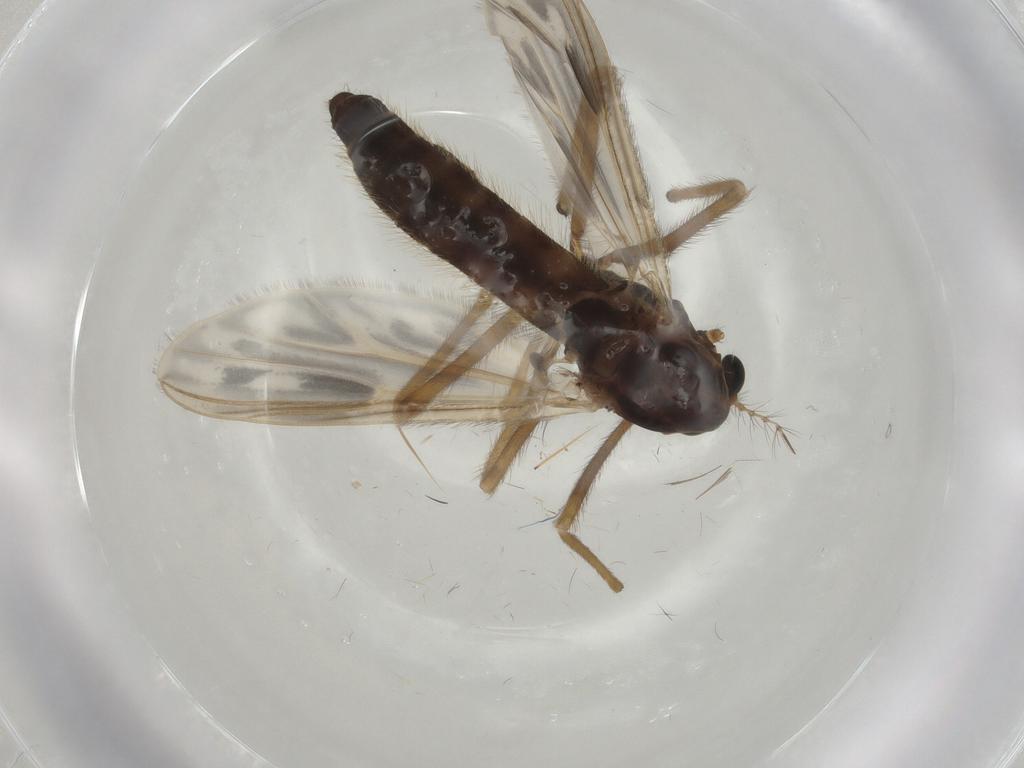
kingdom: Animalia
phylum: Arthropoda
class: Insecta
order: Diptera
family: Chironomidae
